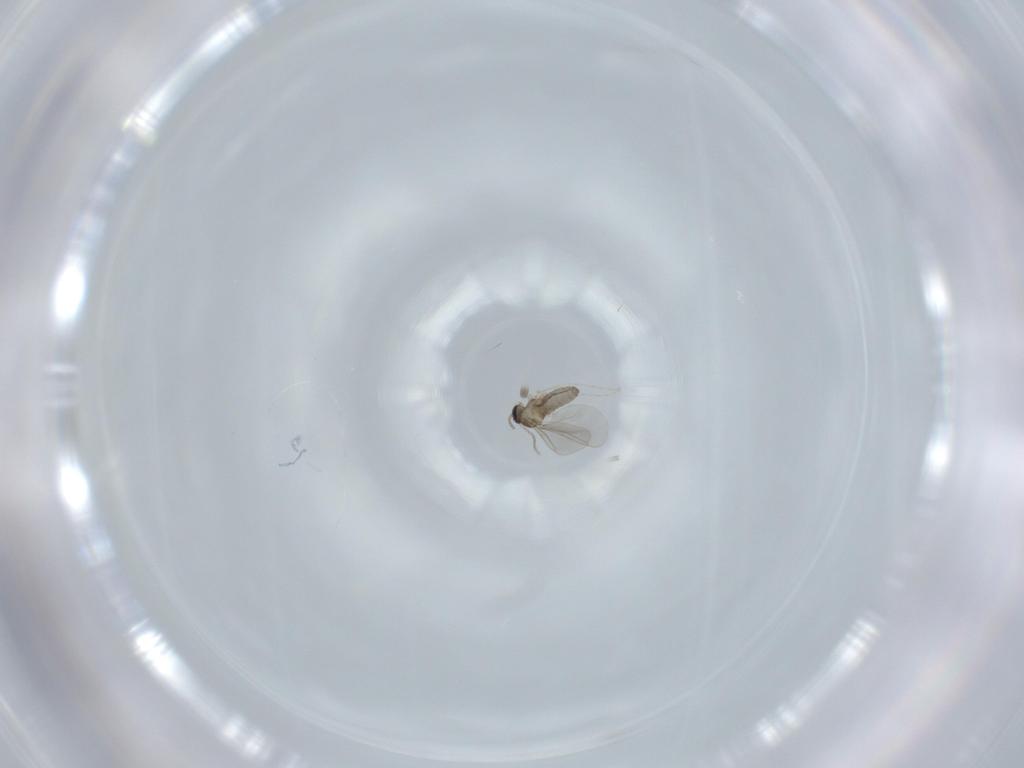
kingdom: Animalia
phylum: Arthropoda
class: Insecta
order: Diptera
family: Cecidomyiidae
